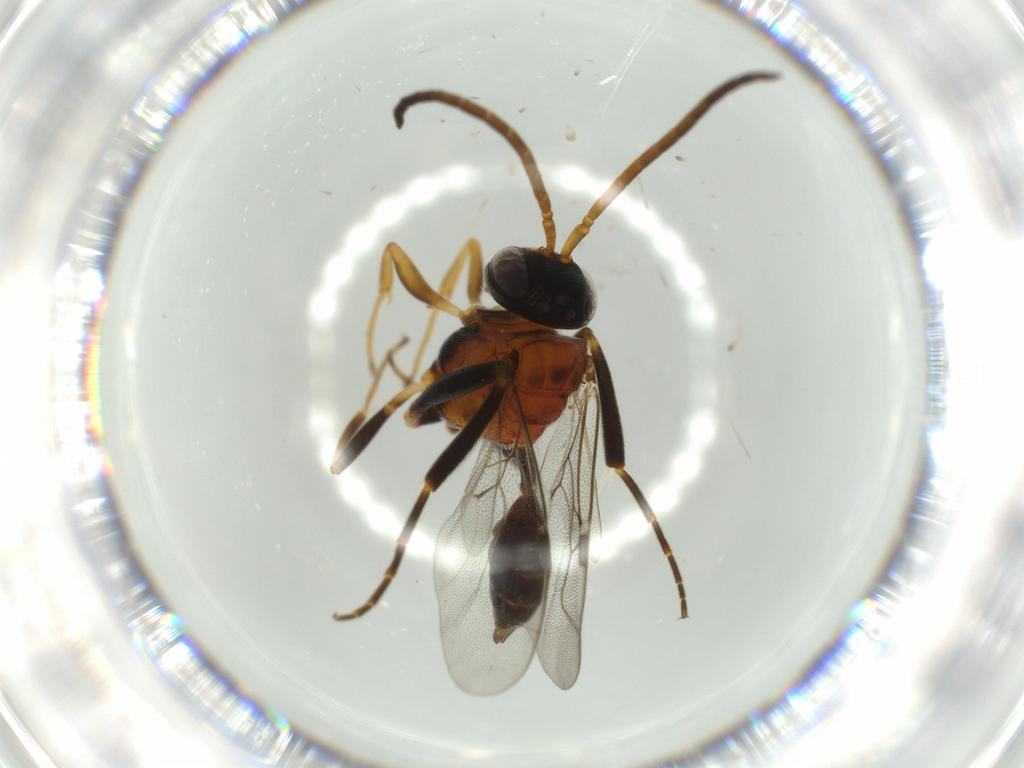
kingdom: Animalia
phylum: Arthropoda
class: Insecta
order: Hymenoptera
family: Evaniidae
